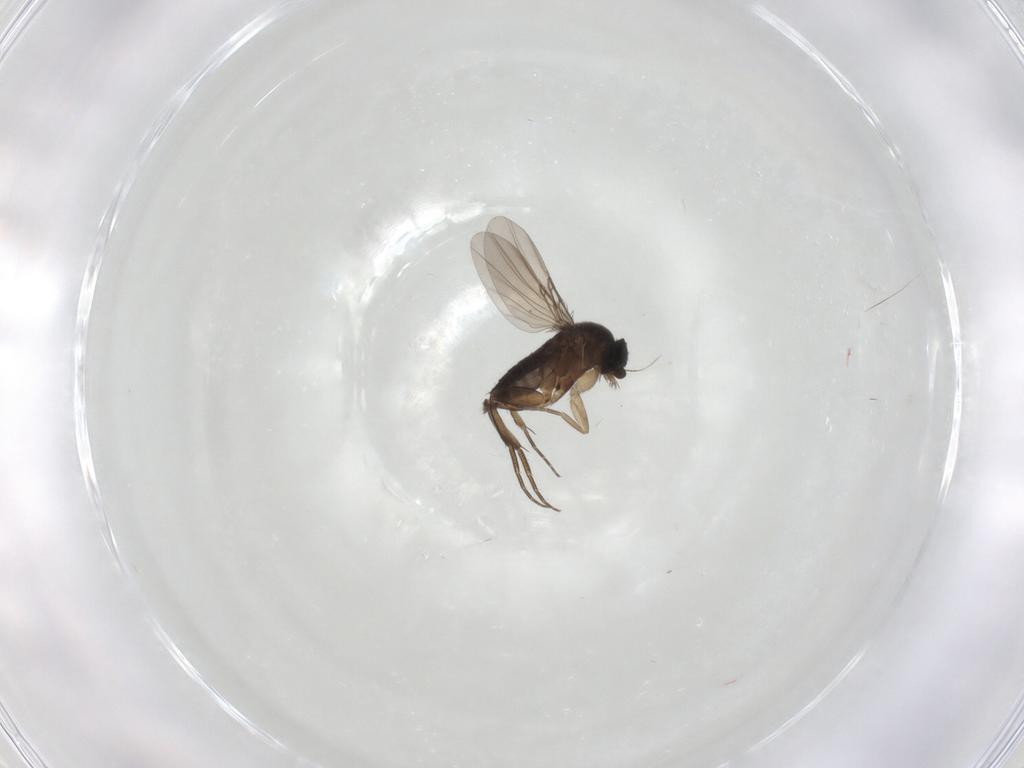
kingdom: Animalia
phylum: Arthropoda
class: Insecta
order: Diptera
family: Phoridae
